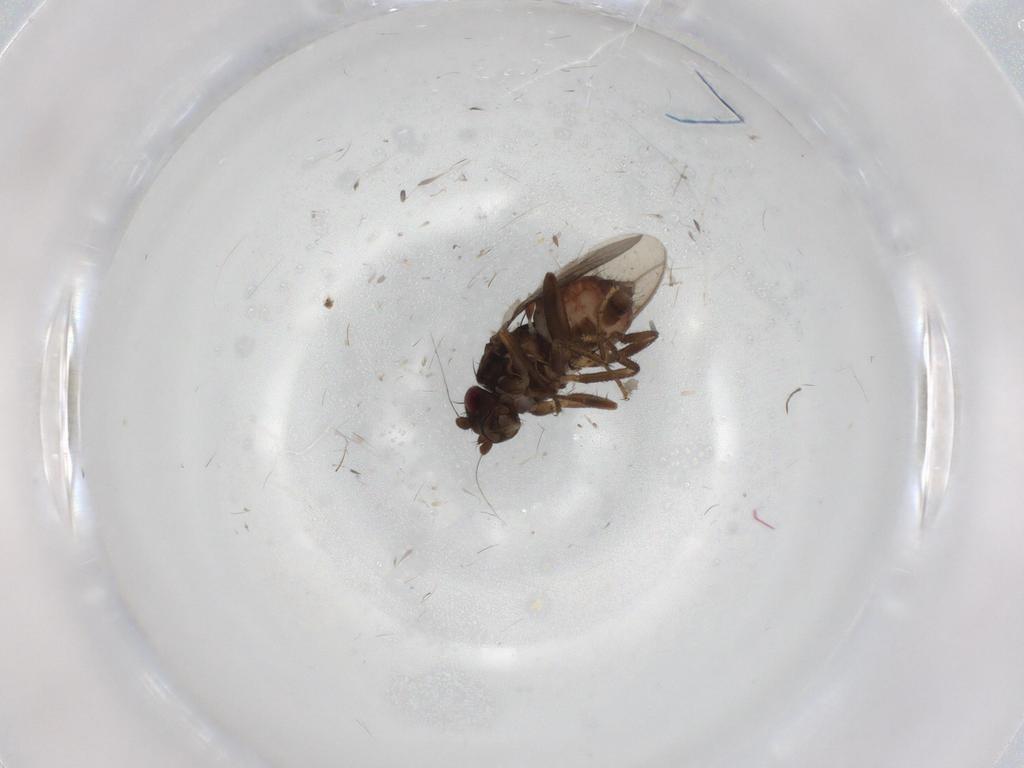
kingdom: Animalia
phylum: Arthropoda
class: Insecta
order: Diptera
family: Sphaeroceridae
